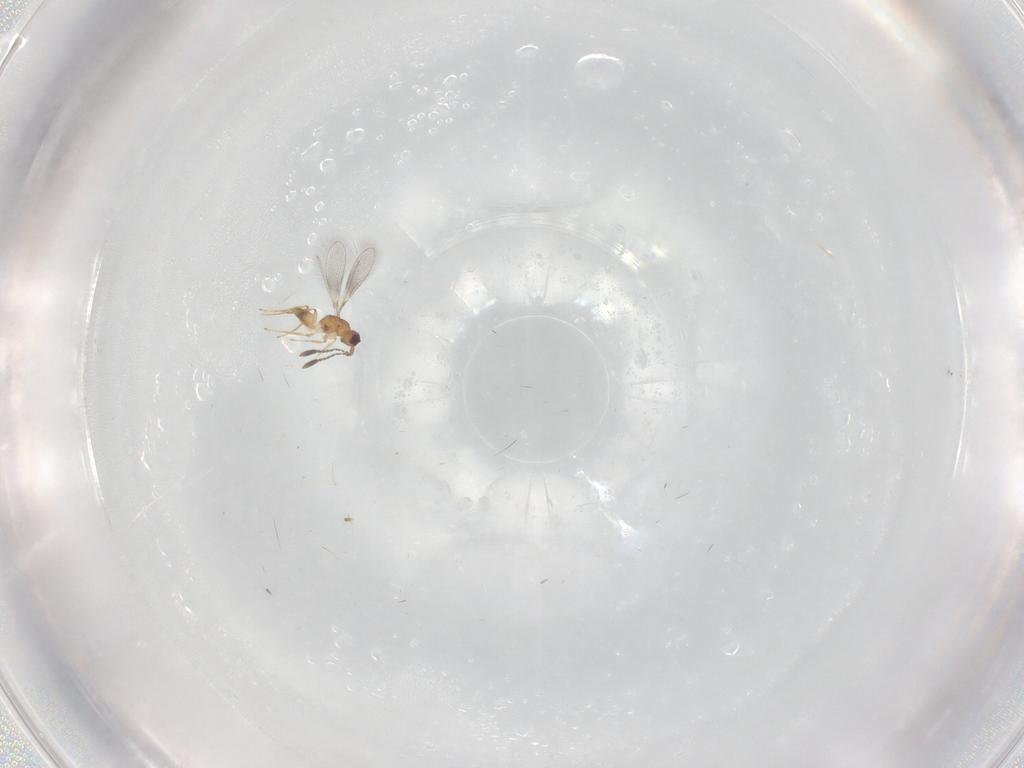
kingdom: Animalia
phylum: Arthropoda
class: Insecta
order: Hymenoptera
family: Mymaridae
